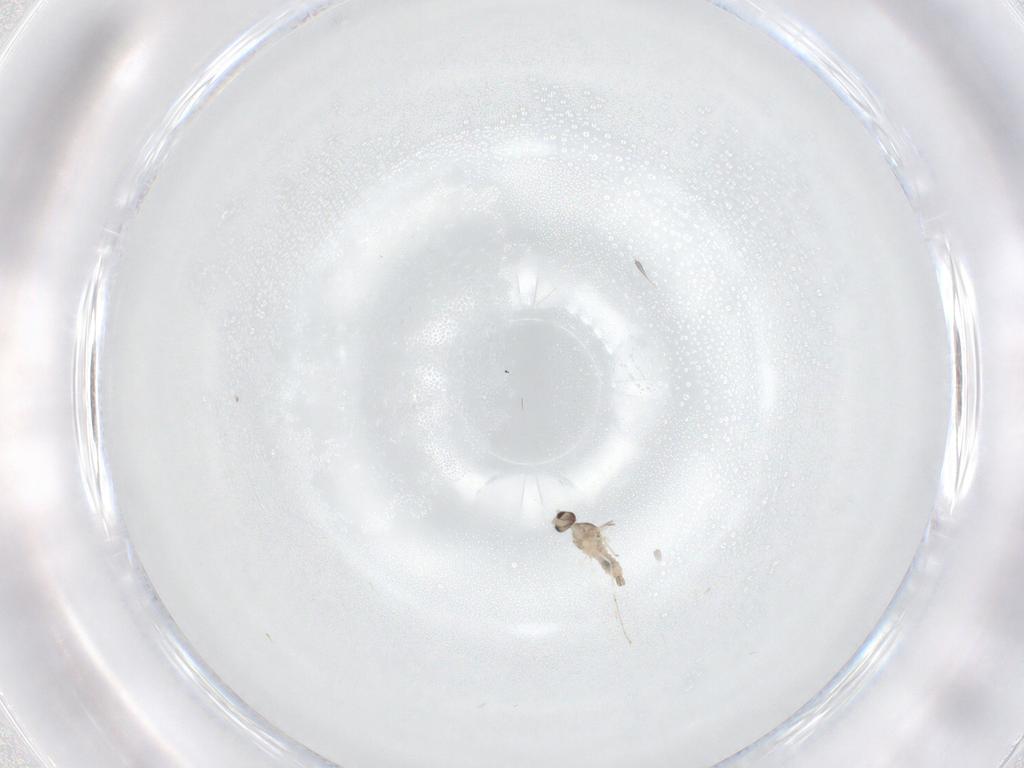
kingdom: Animalia
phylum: Arthropoda
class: Insecta
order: Diptera
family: Cecidomyiidae
